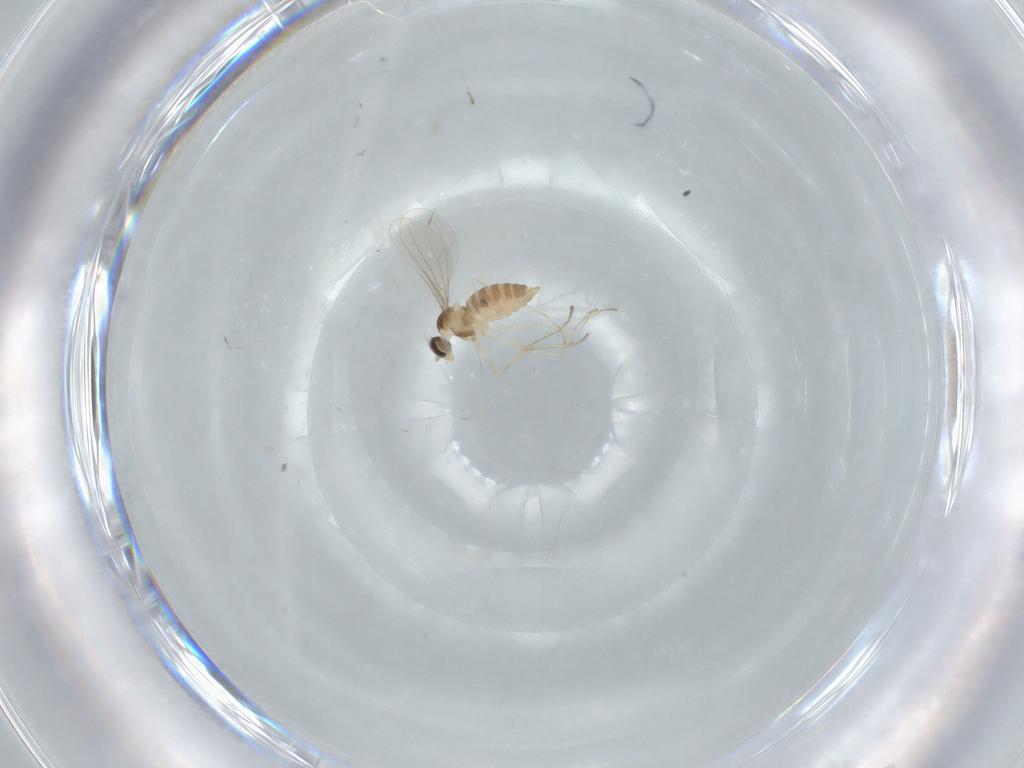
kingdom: Animalia
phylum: Arthropoda
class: Insecta
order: Diptera
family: Cecidomyiidae
